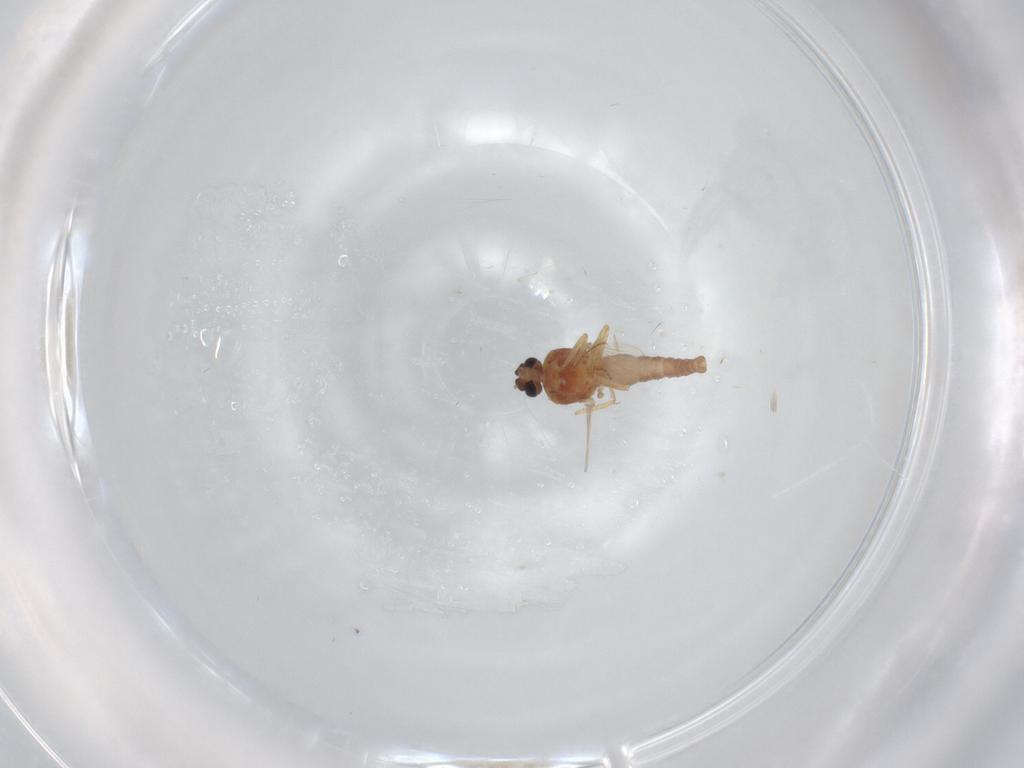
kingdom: Animalia
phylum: Arthropoda
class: Insecta
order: Diptera
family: Ceratopogonidae
